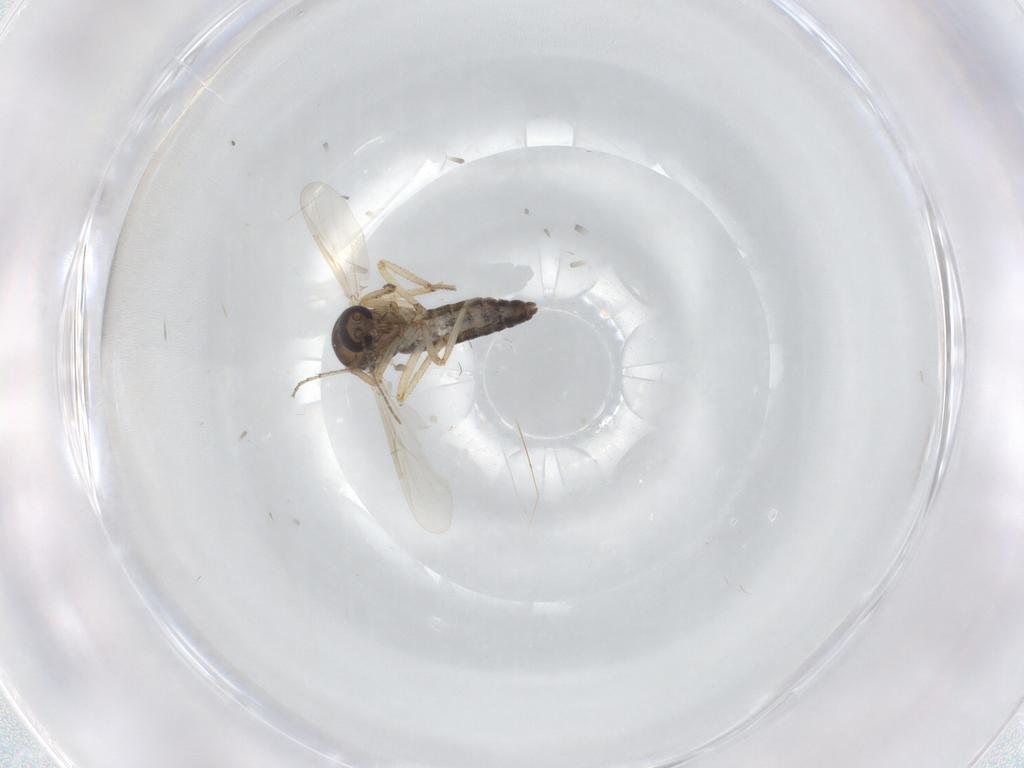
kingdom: Animalia
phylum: Arthropoda
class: Insecta
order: Diptera
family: Ceratopogonidae
